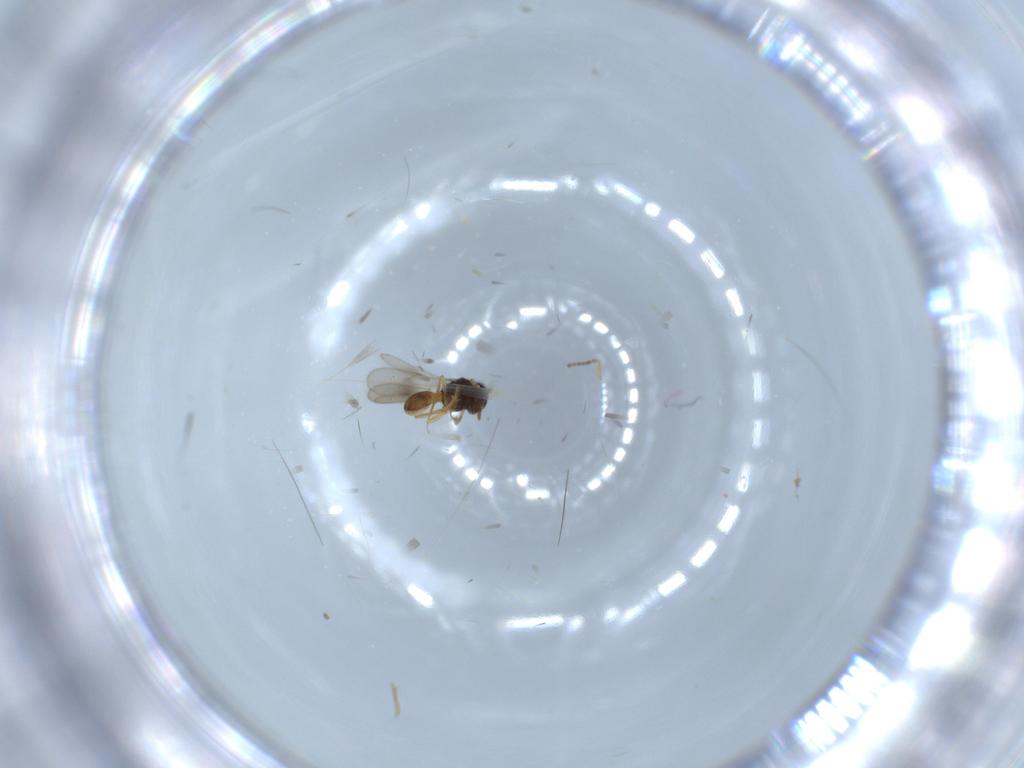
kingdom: Animalia
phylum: Arthropoda
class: Insecta
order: Hymenoptera
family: Scelionidae
